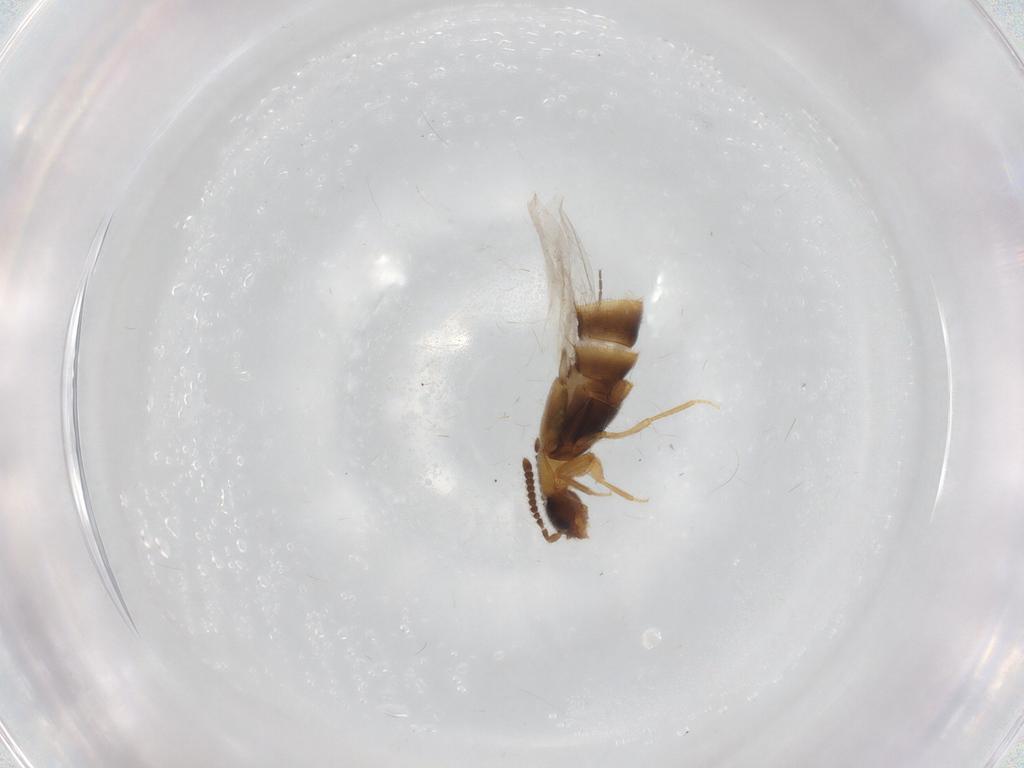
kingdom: Animalia
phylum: Arthropoda
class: Insecta
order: Coleoptera
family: Staphylinidae
